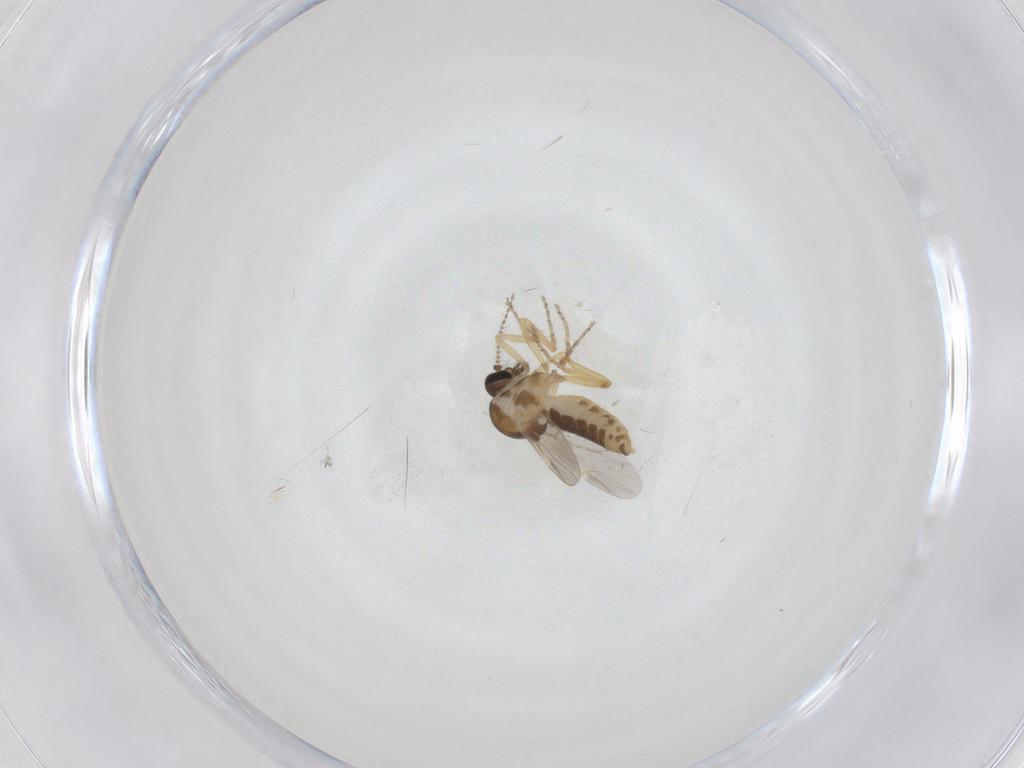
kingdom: Animalia
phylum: Arthropoda
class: Insecta
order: Diptera
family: Ceratopogonidae
